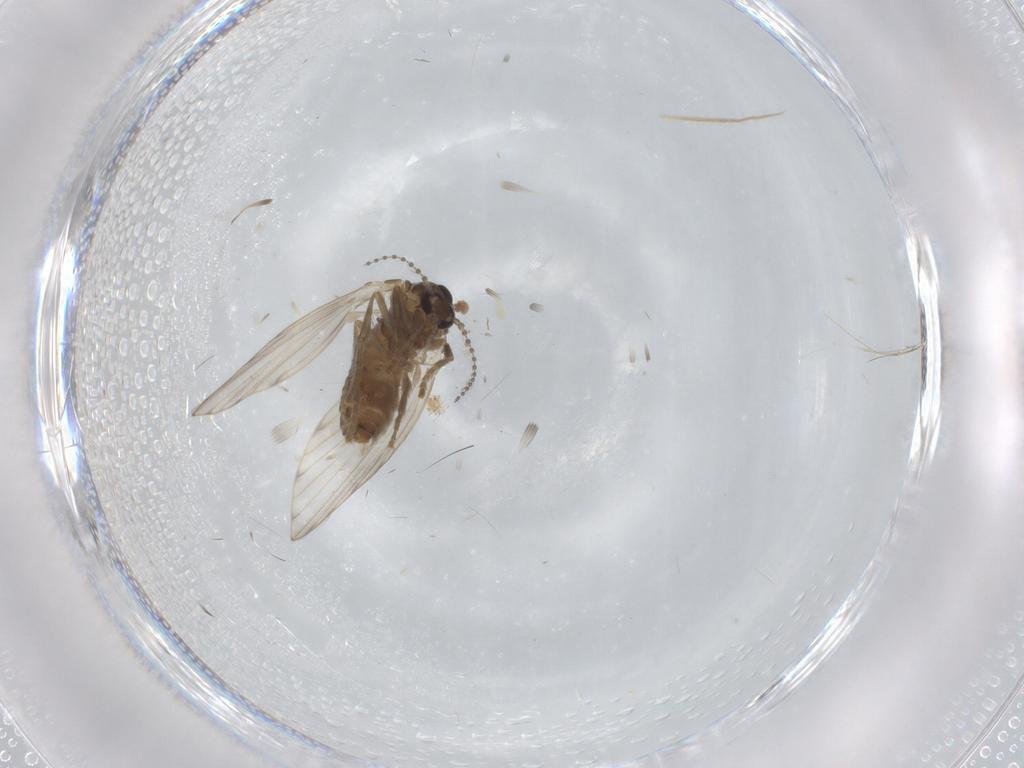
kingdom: Animalia
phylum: Arthropoda
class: Insecta
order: Diptera
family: Psychodidae
